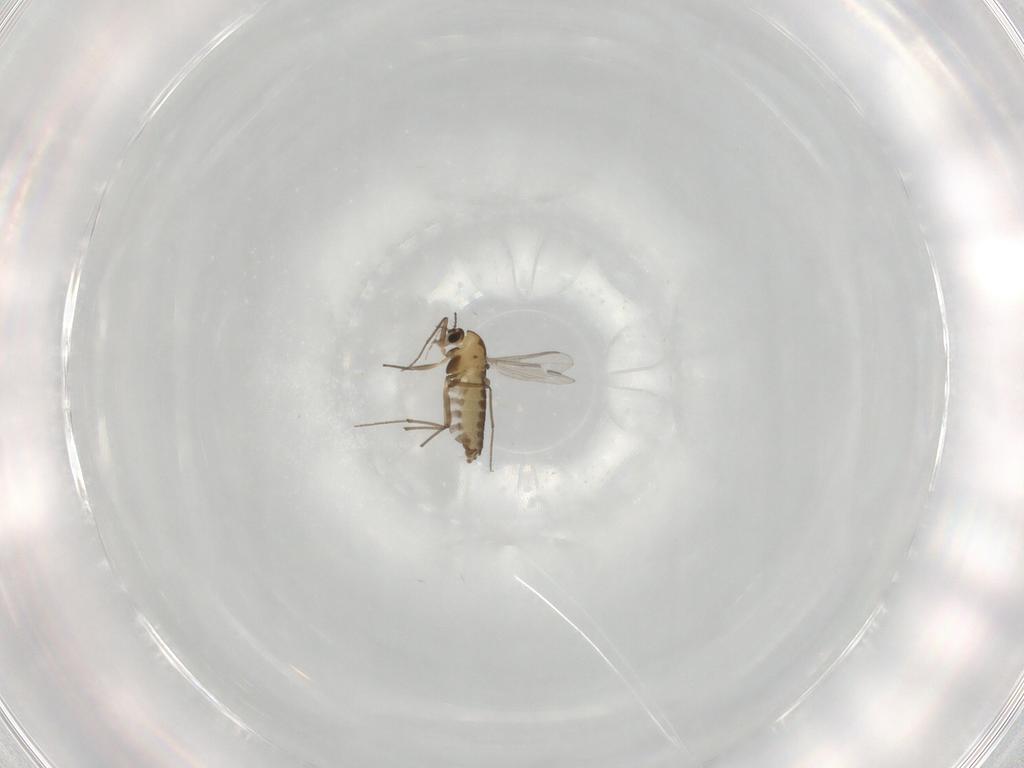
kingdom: Animalia
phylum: Arthropoda
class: Insecta
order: Diptera
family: Chironomidae
